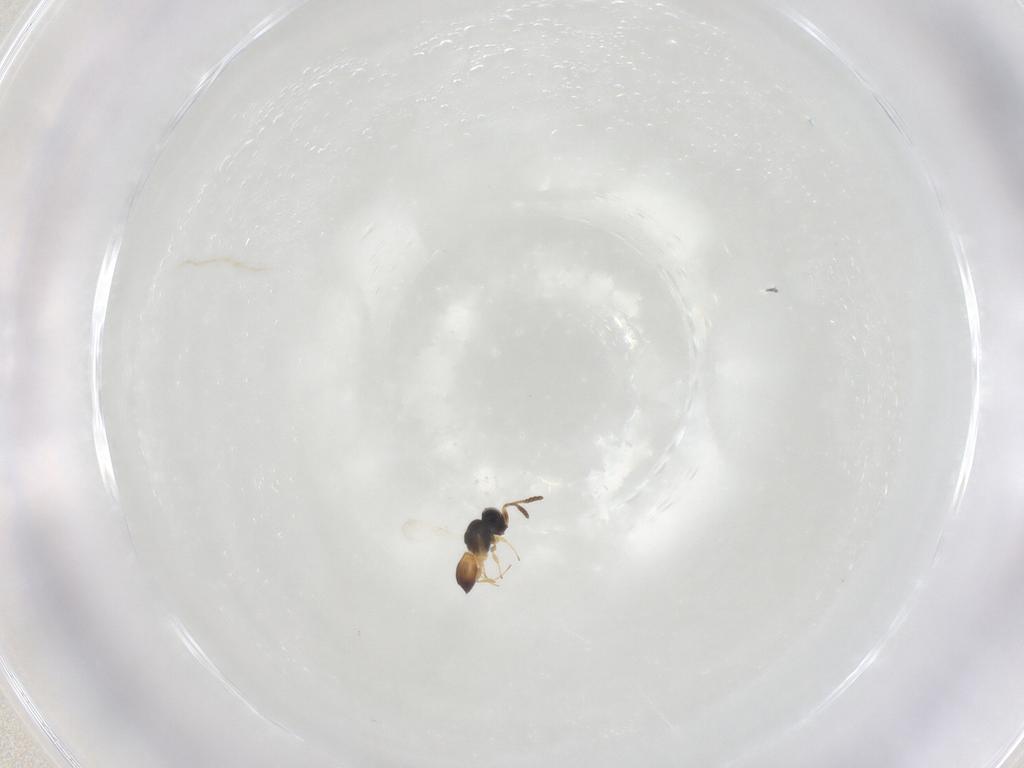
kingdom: Animalia
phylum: Arthropoda
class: Insecta
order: Hymenoptera
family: Scelionidae
